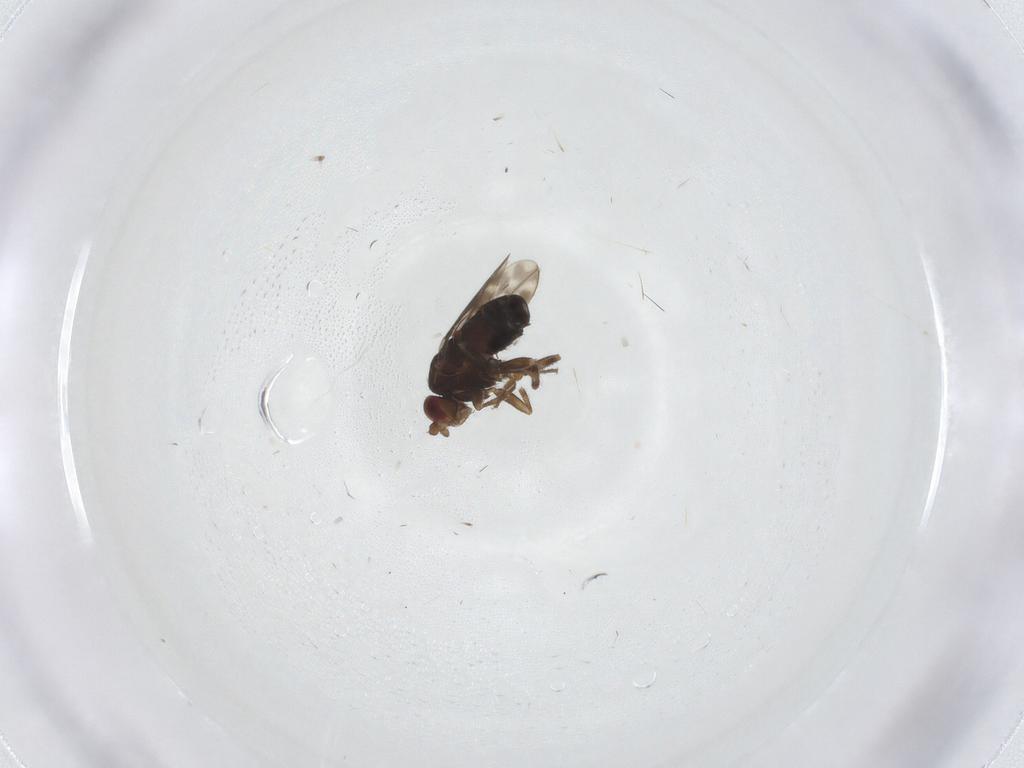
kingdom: Animalia
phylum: Arthropoda
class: Insecta
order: Diptera
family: Sphaeroceridae
